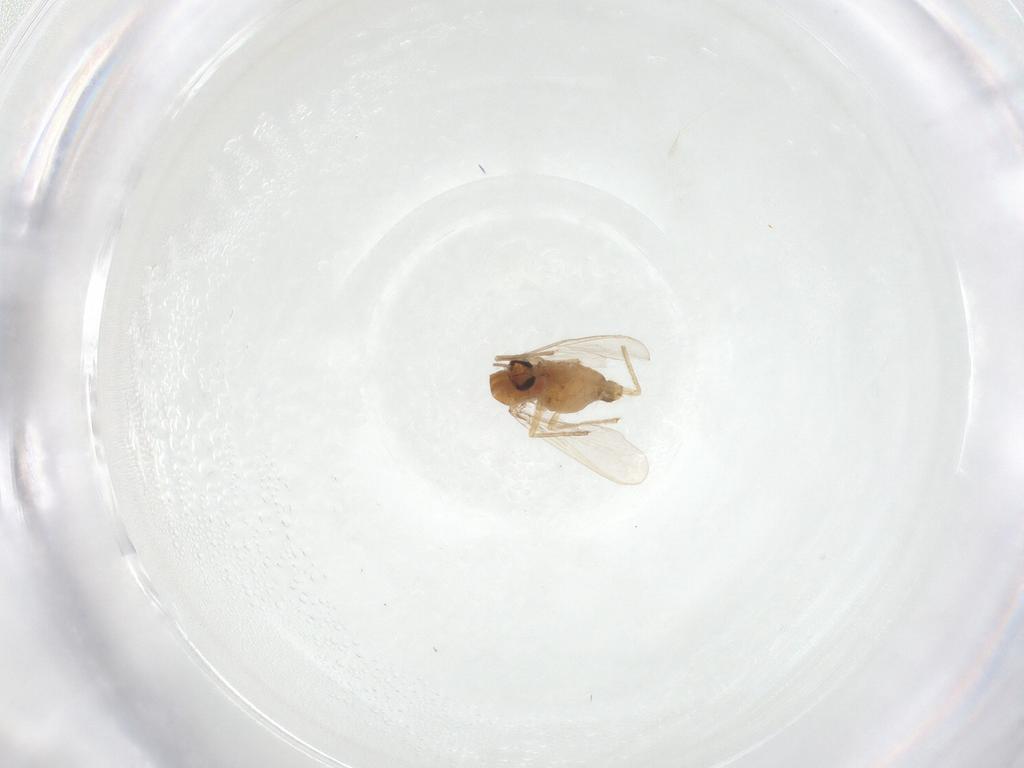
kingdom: Animalia
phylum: Arthropoda
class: Insecta
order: Diptera
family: Chironomidae
